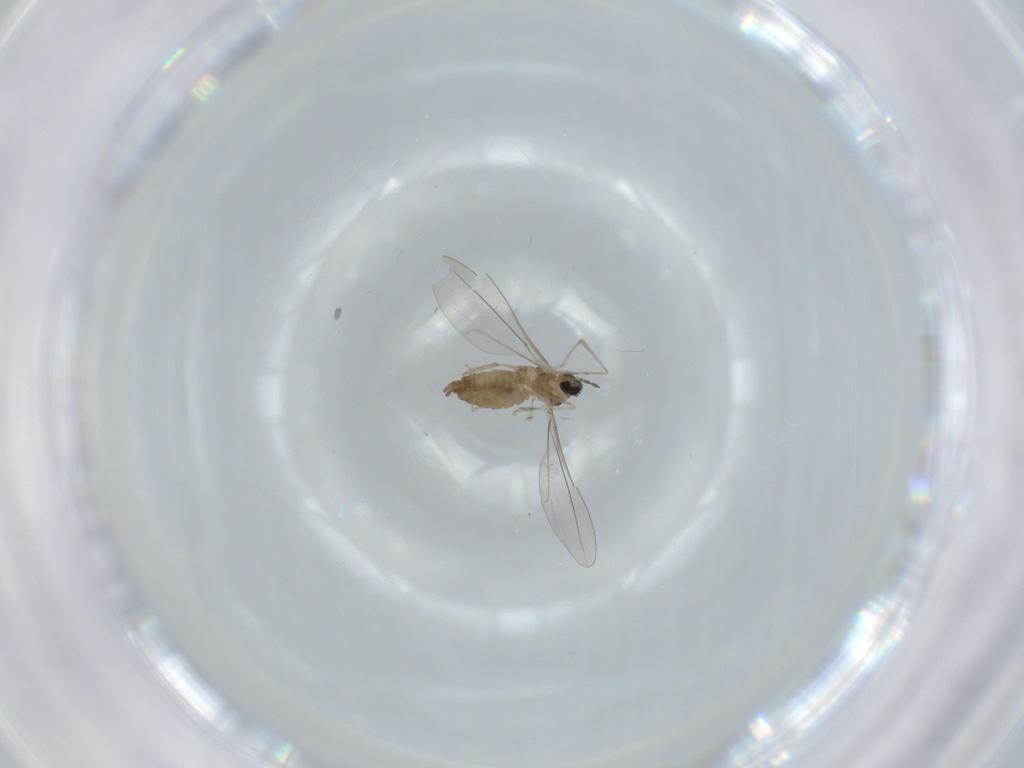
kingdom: Animalia
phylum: Arthropoda
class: Insecta
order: Diptera
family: Cecidomyiidae
